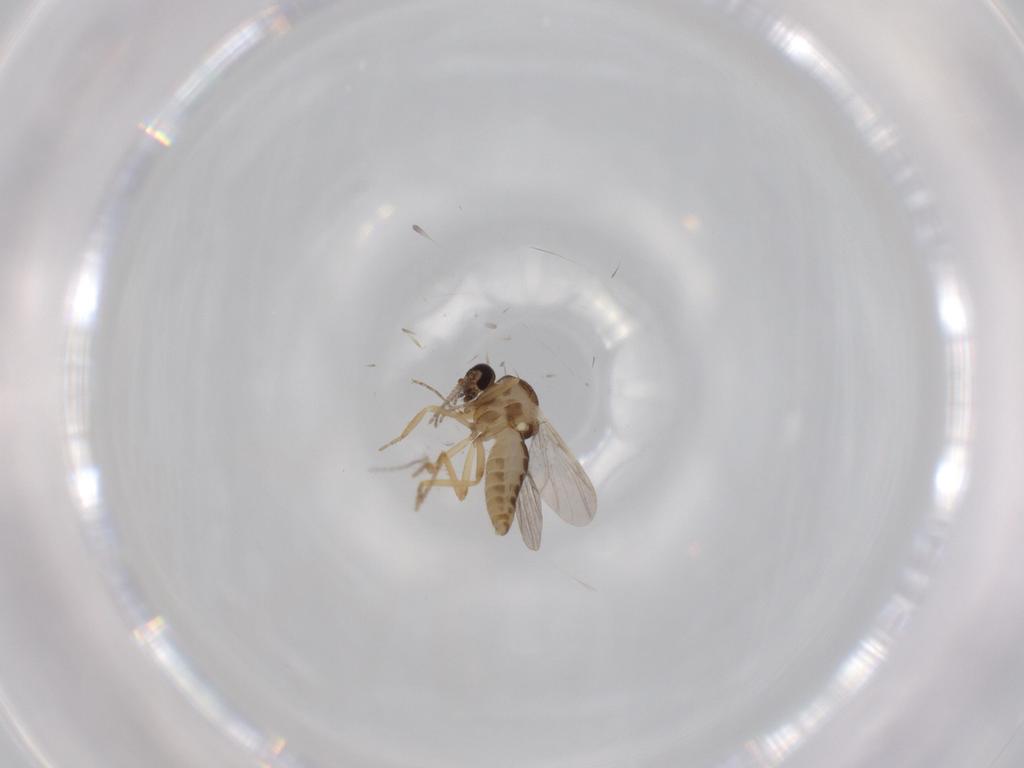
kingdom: Animalia
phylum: Arthropoda
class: Insecta
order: Diptera
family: Ceratopogonidae
